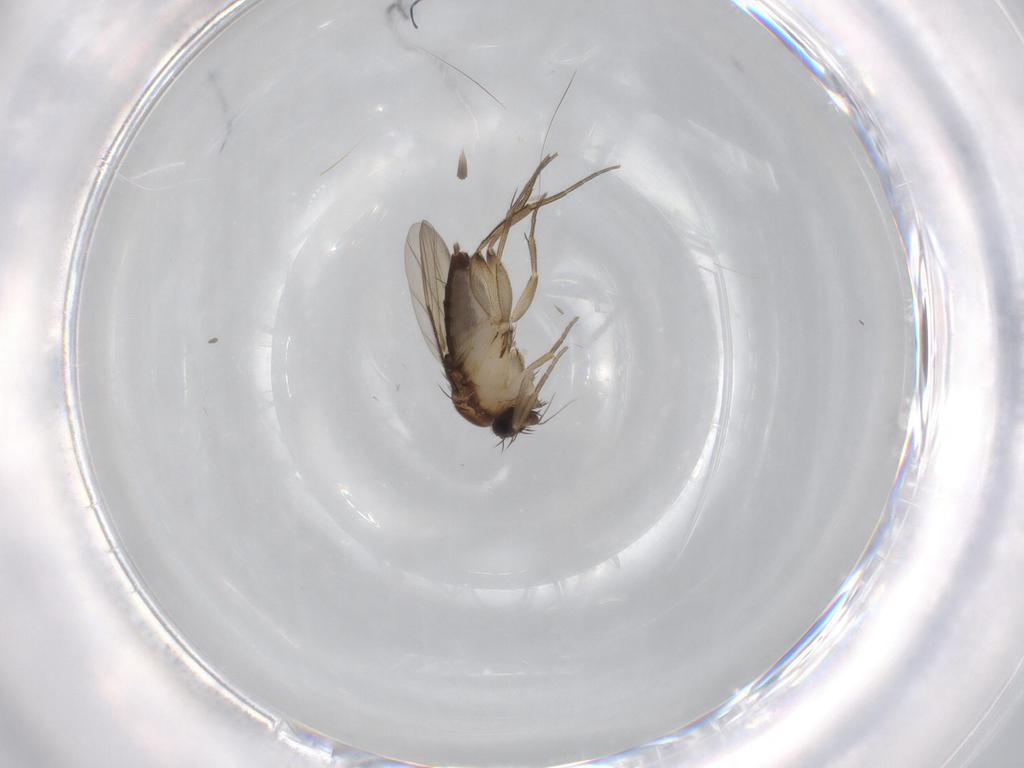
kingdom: Animalia
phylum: Arthropoda
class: Insecta
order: Diptera
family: Phoridae
